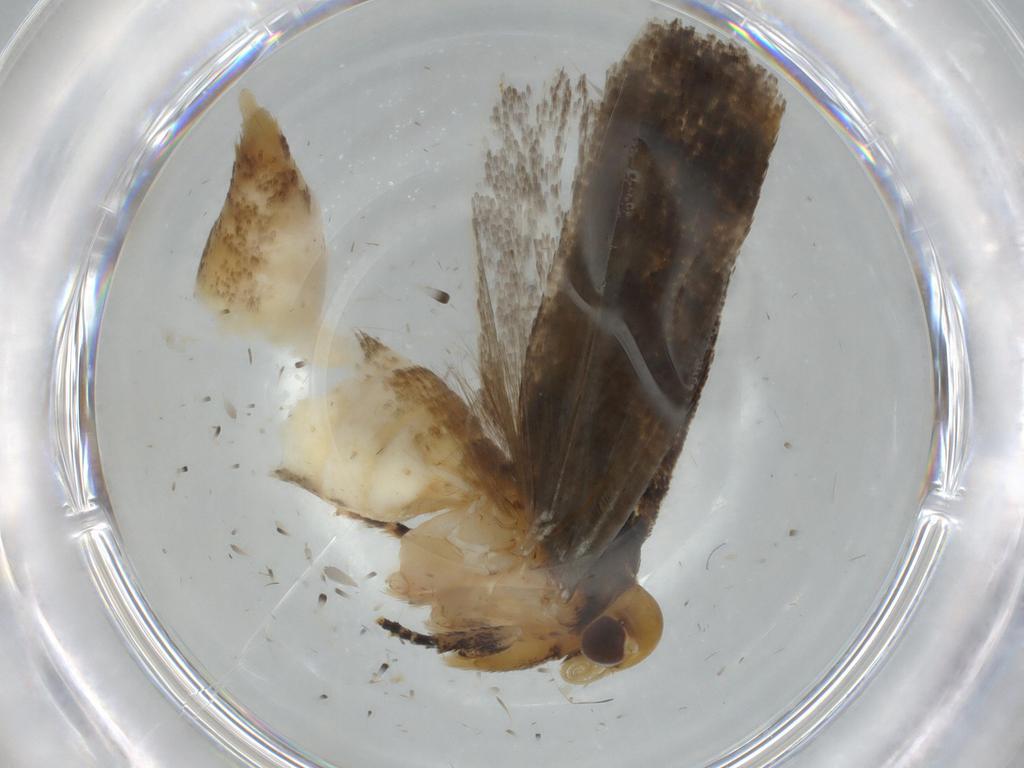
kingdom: Animalia
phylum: Arthropoda
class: Insecta
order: Lepidoptera
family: Gelechiidae
